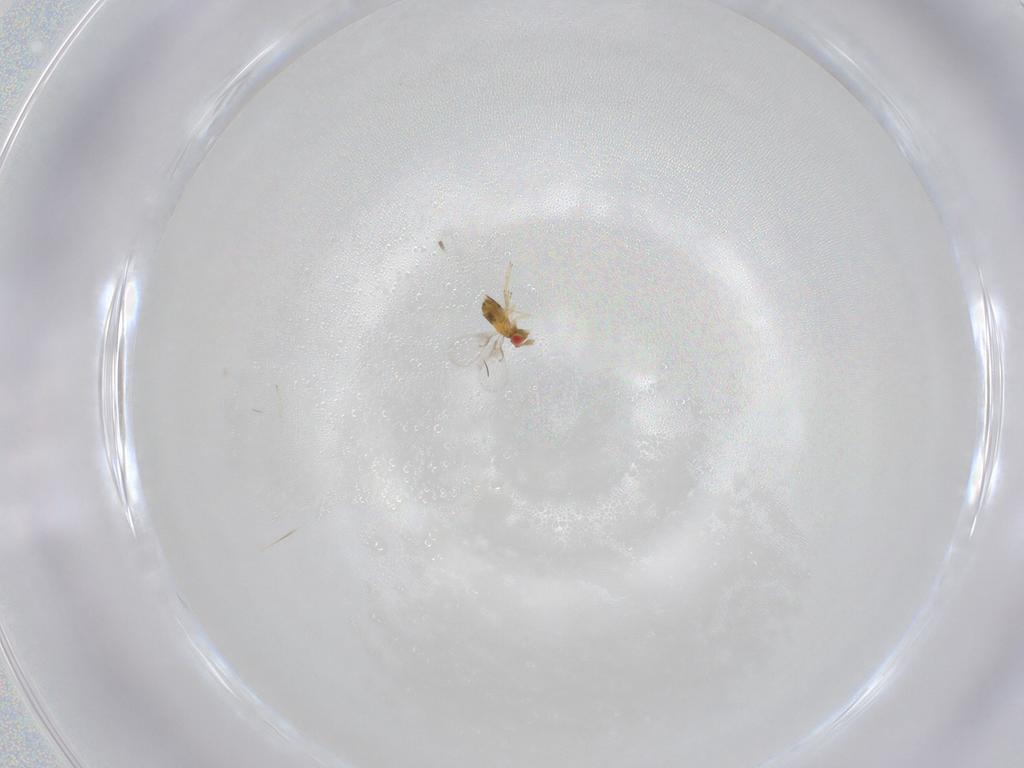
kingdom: Animalia
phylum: Arthropoda
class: Insecta
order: Hymenoptera
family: Trichogrammatidae
